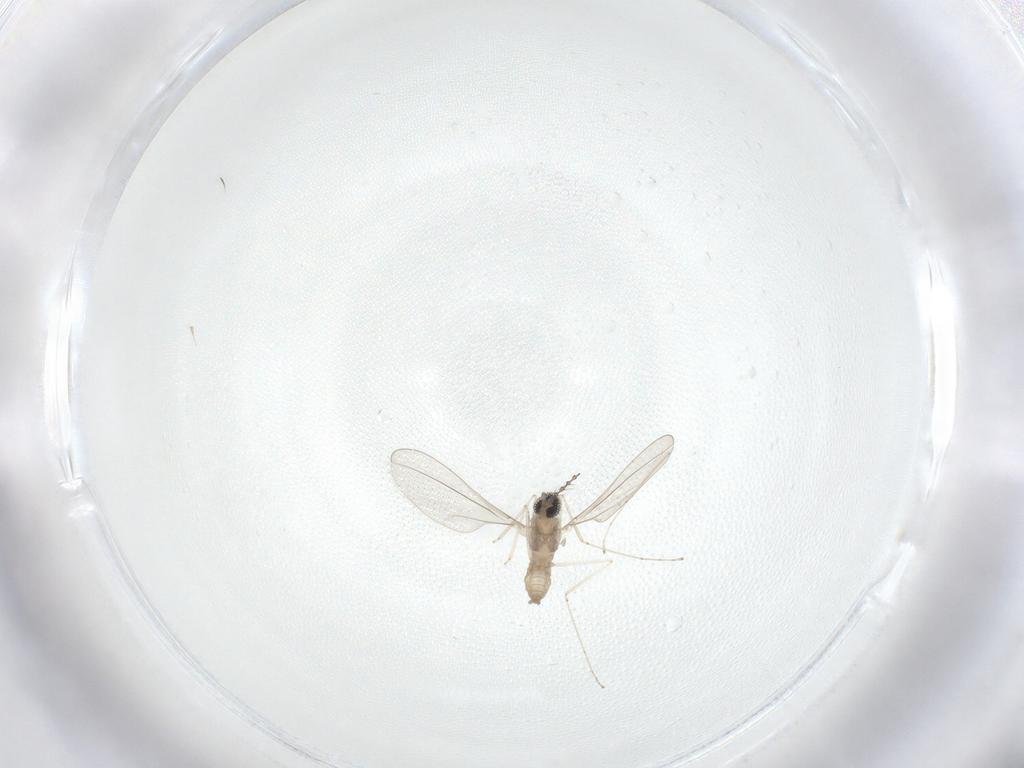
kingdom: Animalia
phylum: Arthropoda
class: Insecta
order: Diptera
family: Cecidomyiidae
